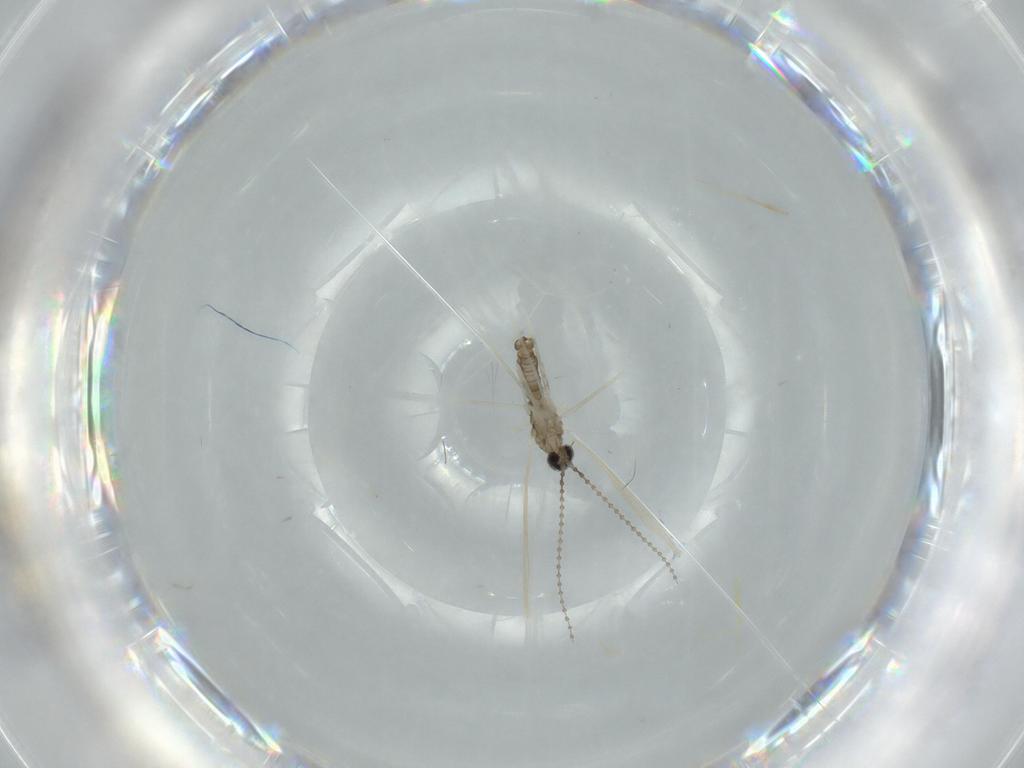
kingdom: Animalia
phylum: Arthropoda
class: Insecta
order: Diptera
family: Cecidomyiidae
